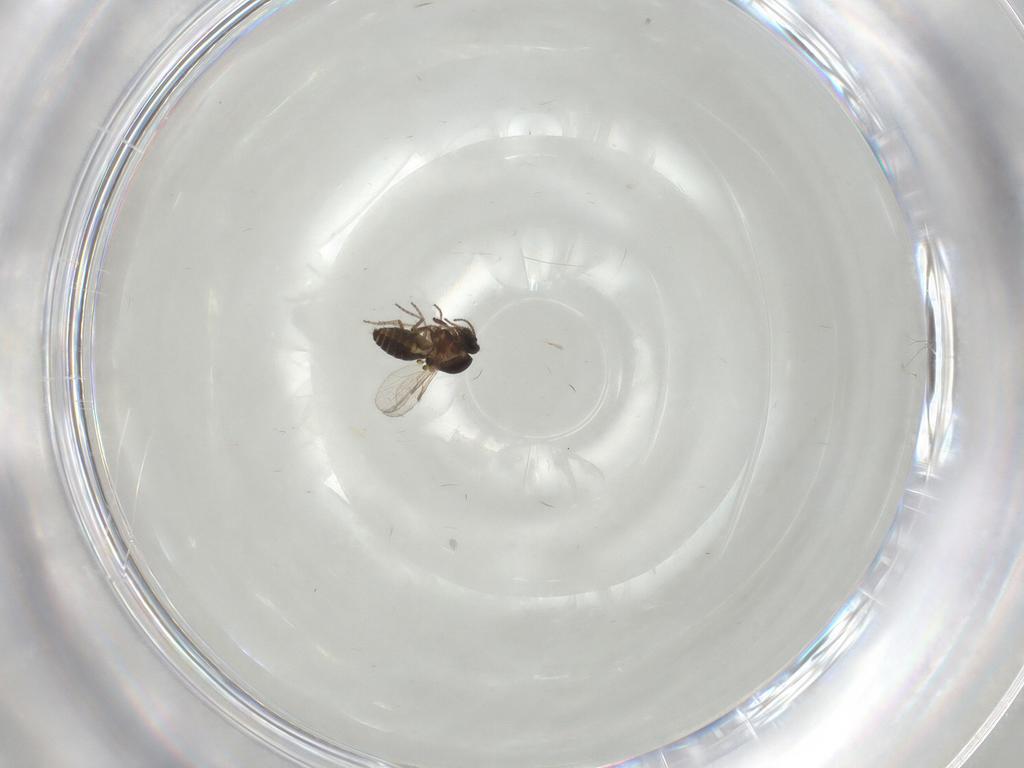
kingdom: Animalia
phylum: Arthropoda
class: Insecta
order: Diptera
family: Ceratopogonidae
